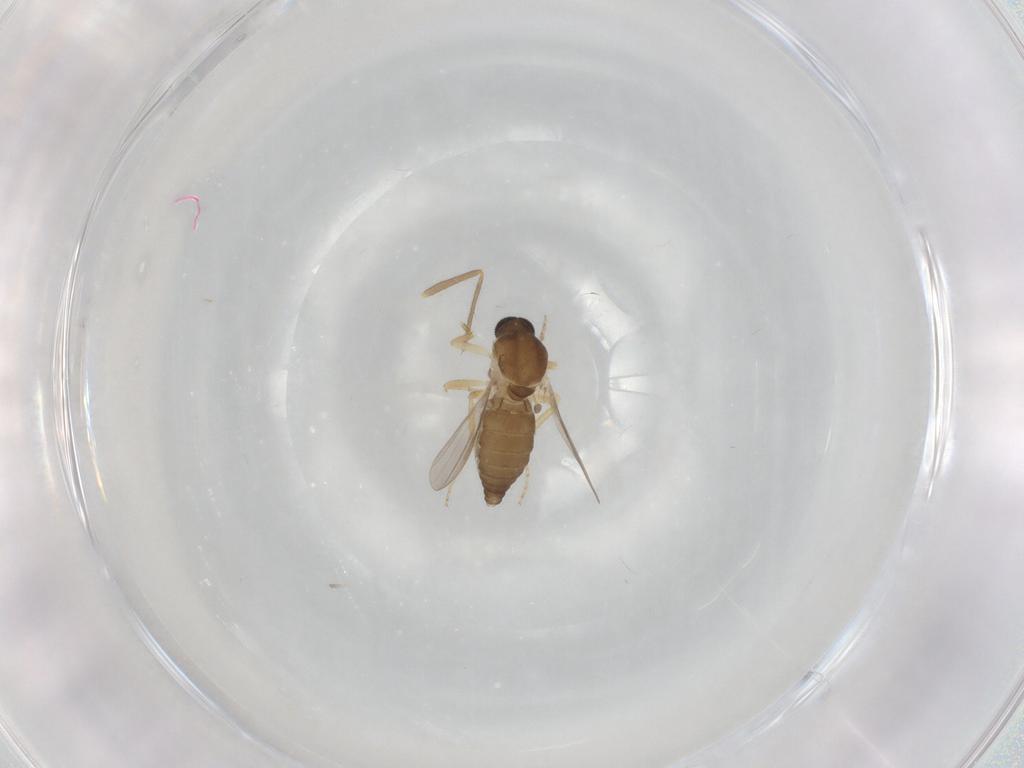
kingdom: Animalia
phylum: Arthropoda
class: Insecta
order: Diptera
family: Ceratopogonidae
